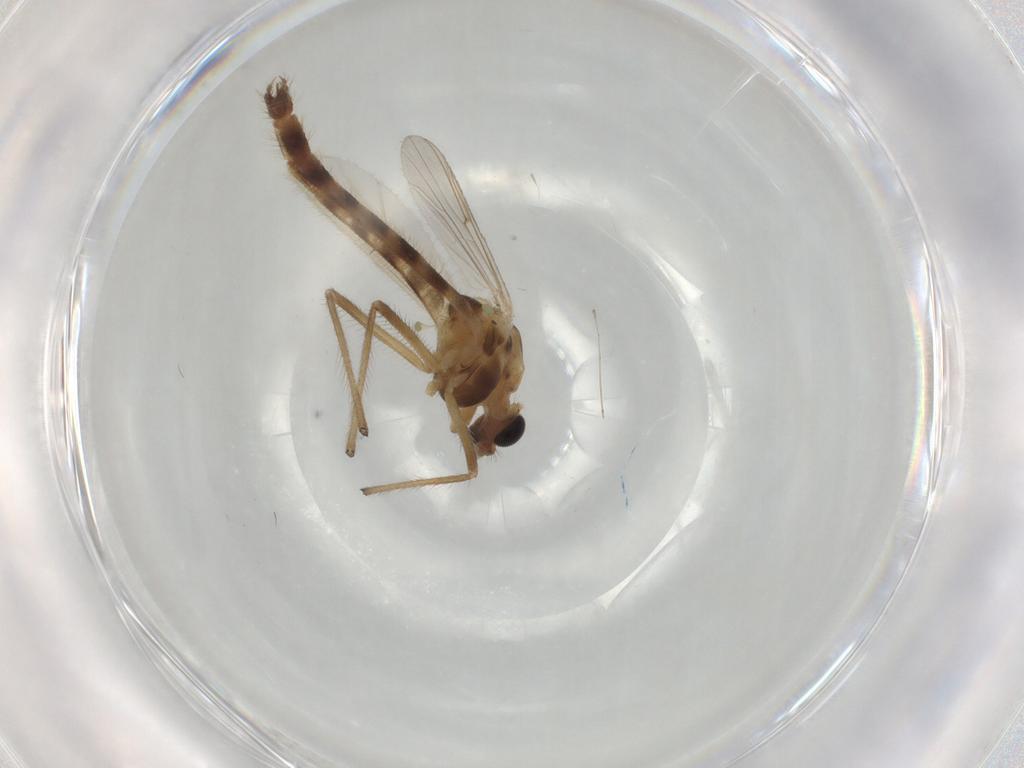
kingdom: Animalia
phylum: Arthropoda
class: Insecta
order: Diptera
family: Chironomidae
